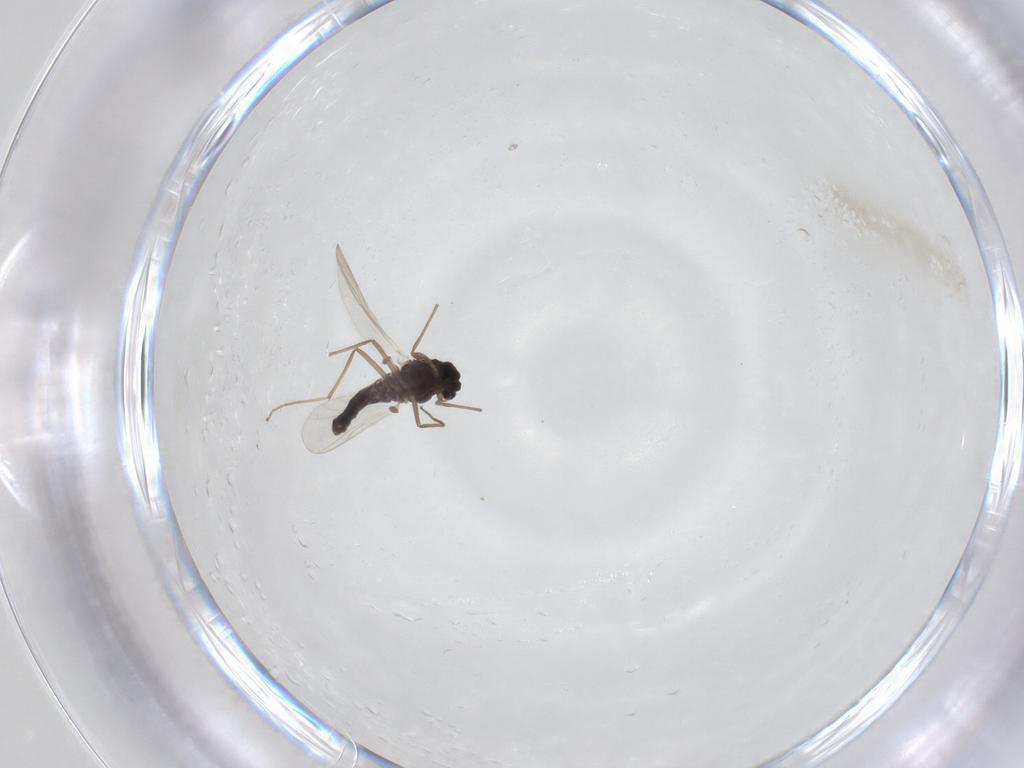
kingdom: Animalia
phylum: Arthropoda
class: Insecta
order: Diptera
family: Chironomidae
